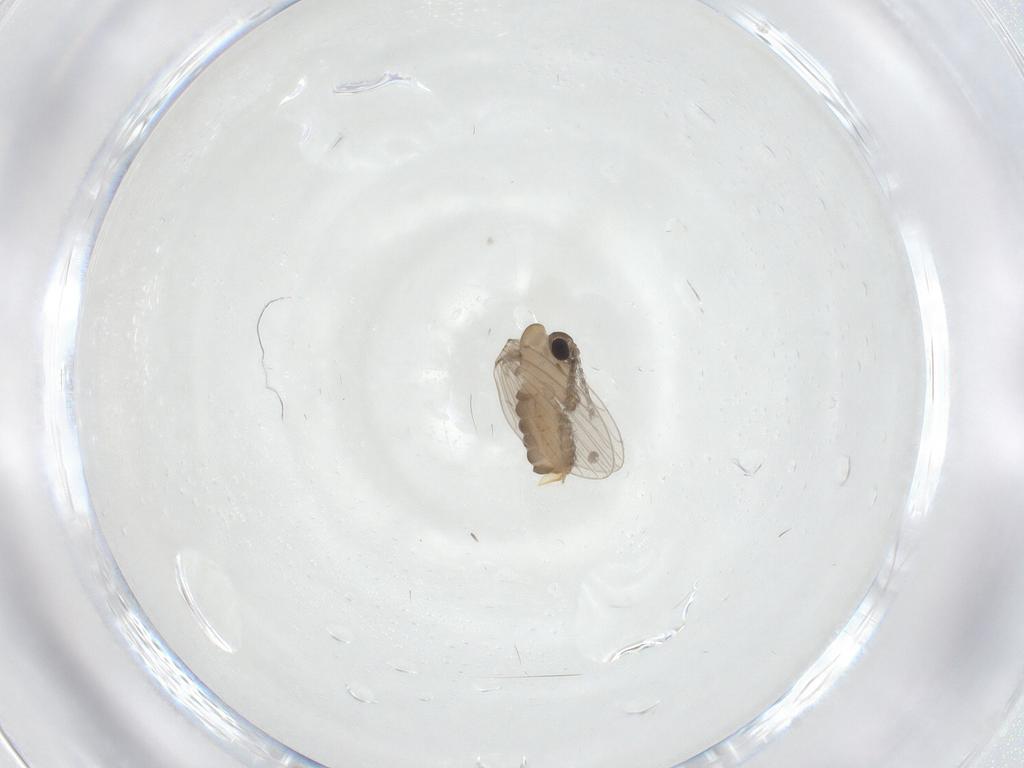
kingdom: Animalia
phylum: Arthropoda
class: Insecta
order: Diptera
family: Psychodidae
